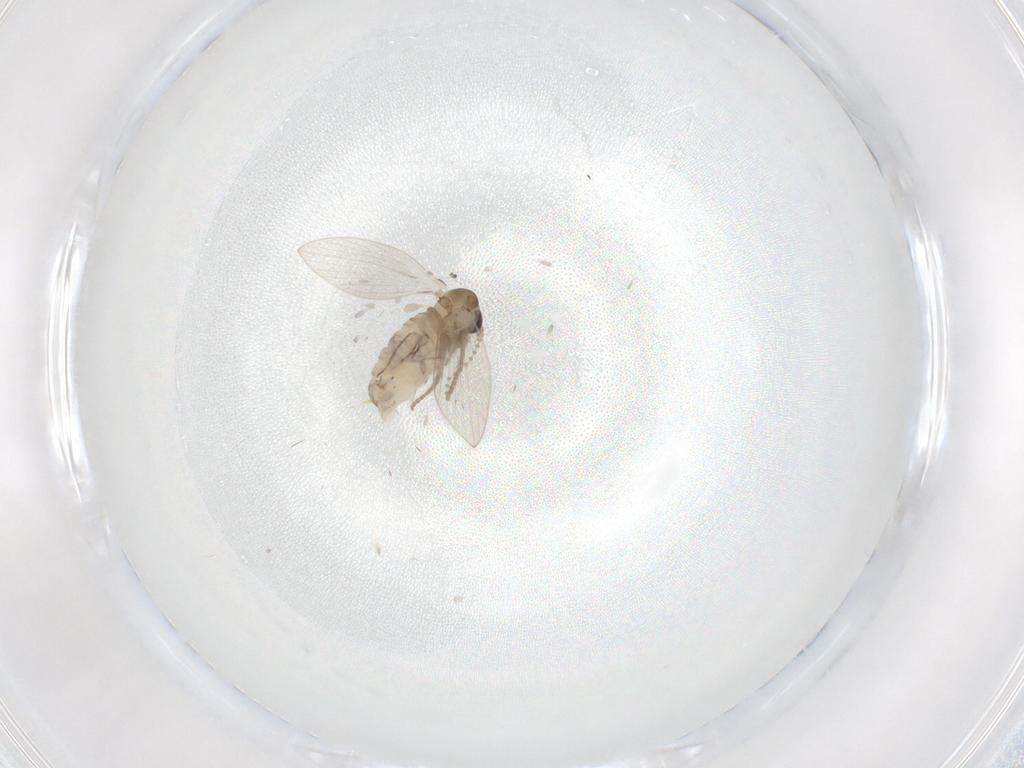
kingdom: Animalia
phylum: Arthropoda
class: Insecta
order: Diptera
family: Psychodidae
